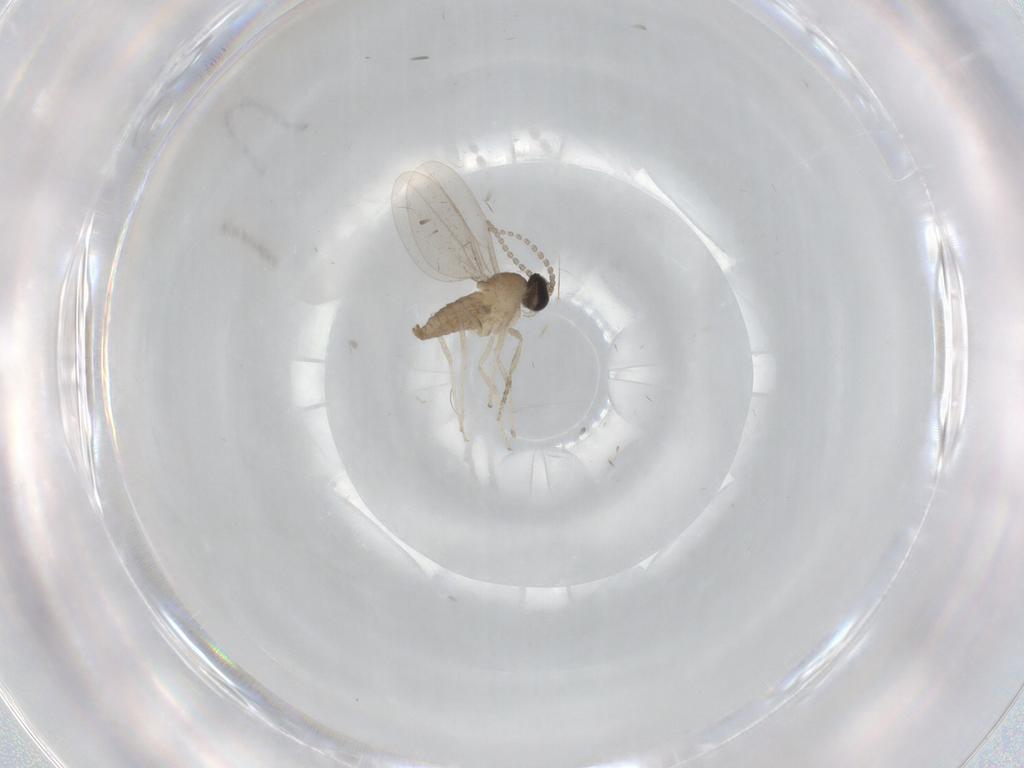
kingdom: Animalia
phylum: Arthropoda
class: Insecta
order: Diptera
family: Cecidomyiidae
